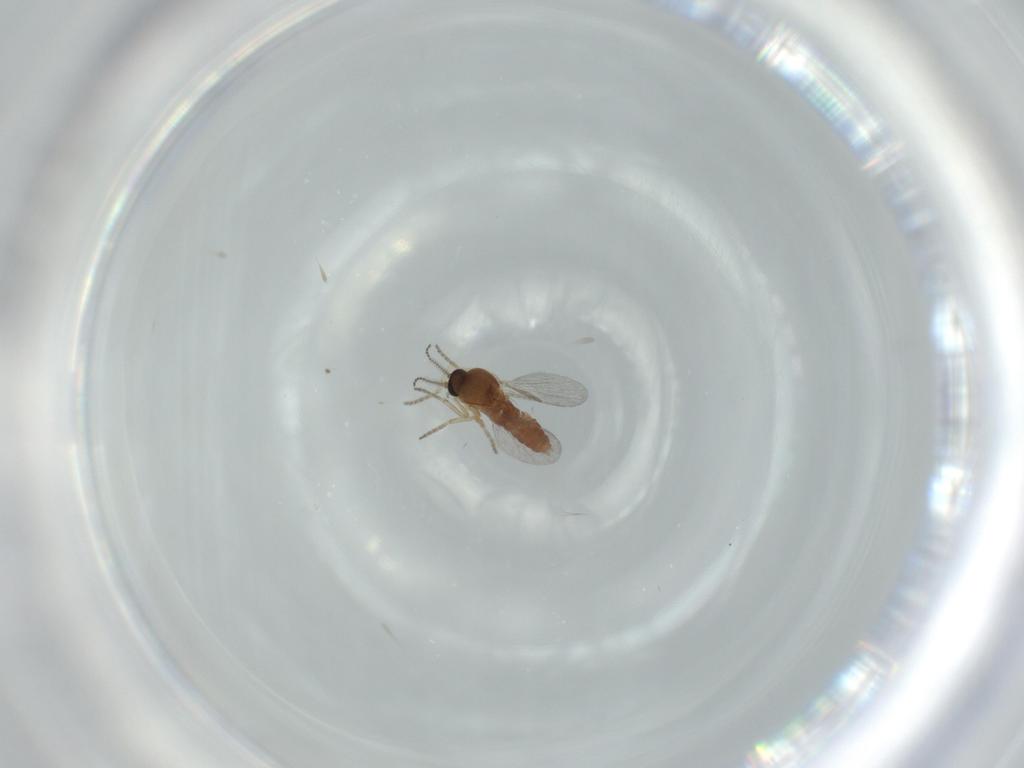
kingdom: Animalia
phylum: Arthropoda
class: Insecta
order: Diptera
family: Ceratopogonidae
